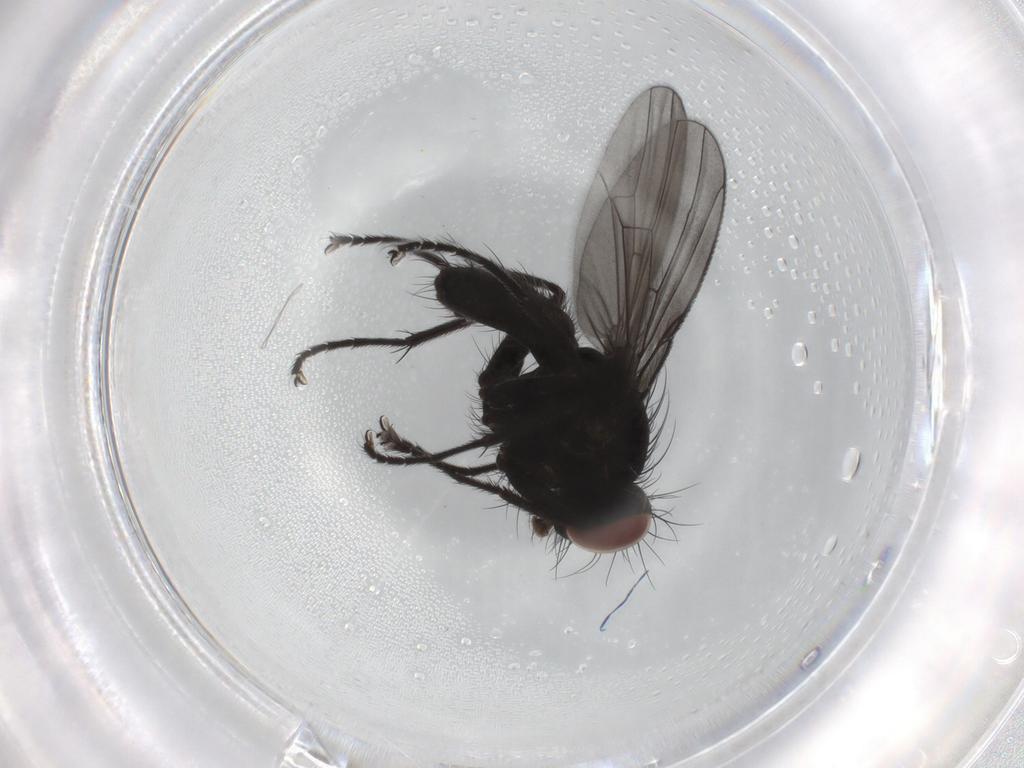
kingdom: Animalia
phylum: Arthropoda
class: Insecta
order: Diptera
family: Muscidae
